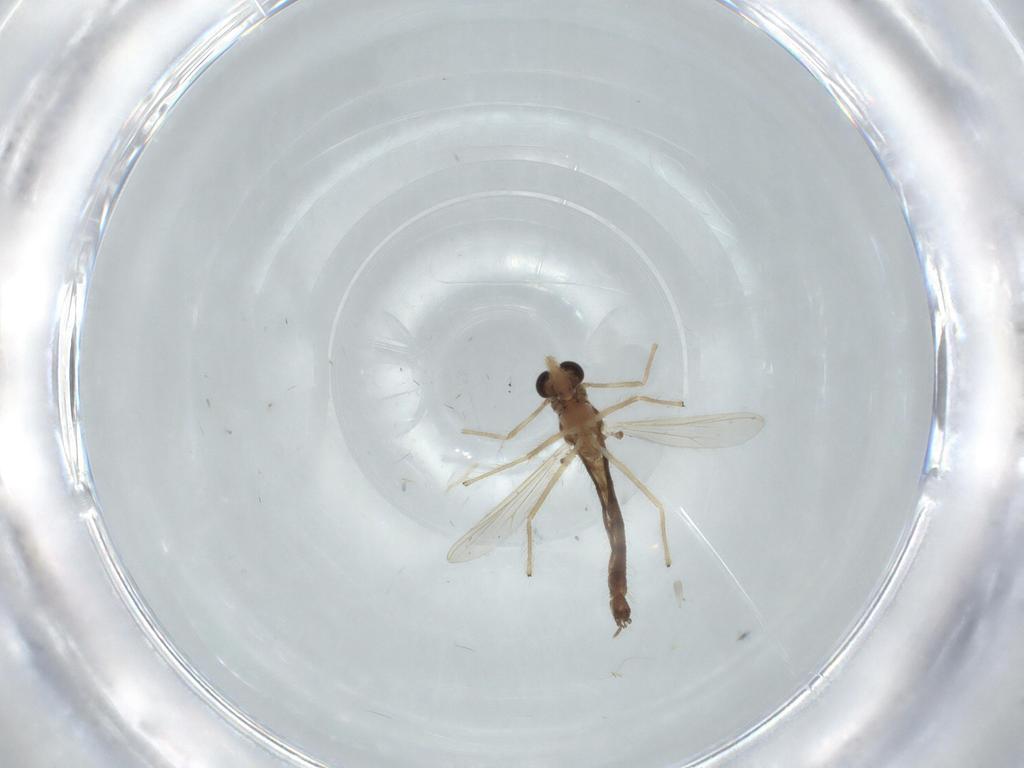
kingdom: Animalia
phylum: Arthropoda
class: Insecta
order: Diptera
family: Chironomidae
